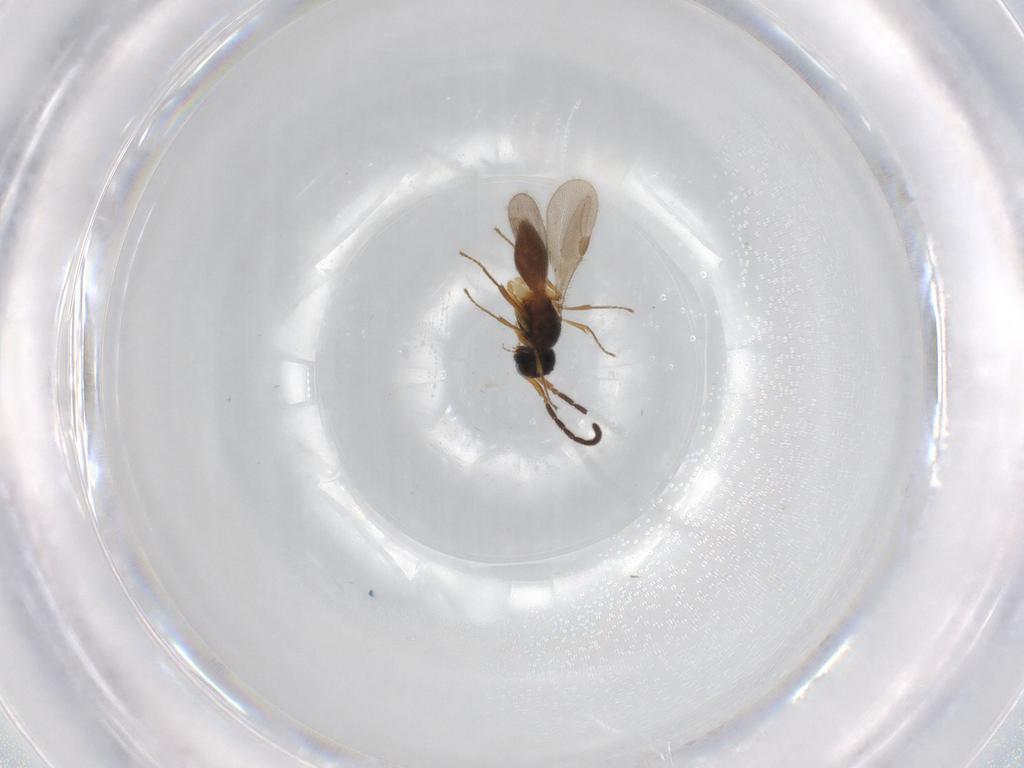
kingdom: Animalia
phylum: Arthropoda
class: Insecta
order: Hymenoptera
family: Megaspilidae
